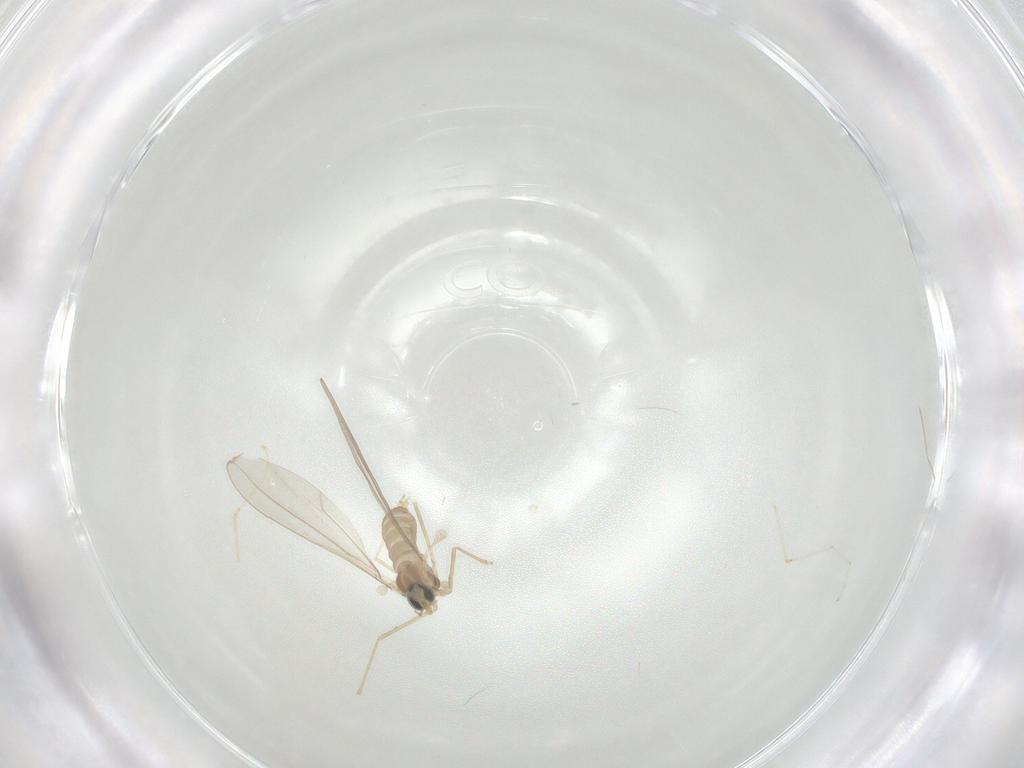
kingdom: Animalia
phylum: Arthropoda
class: Insecta
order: Diptera
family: Cecidomyiidae
